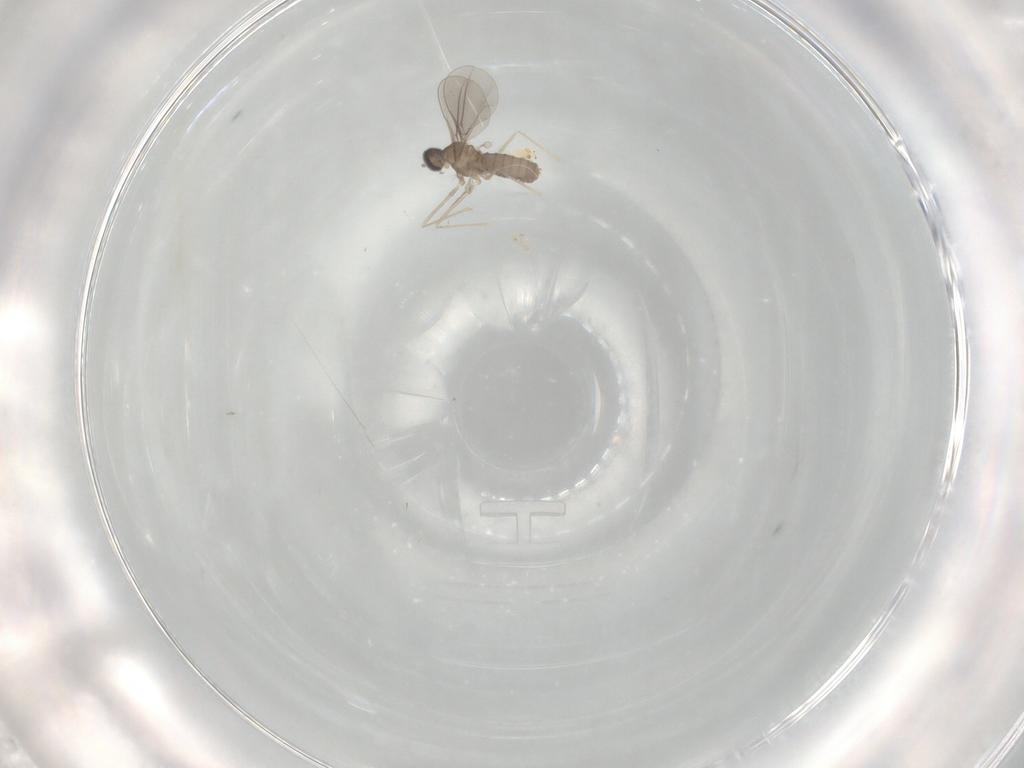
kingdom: Animalia
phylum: Arthropoda
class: Insecta
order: Diptera
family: Cecidomyiidae
